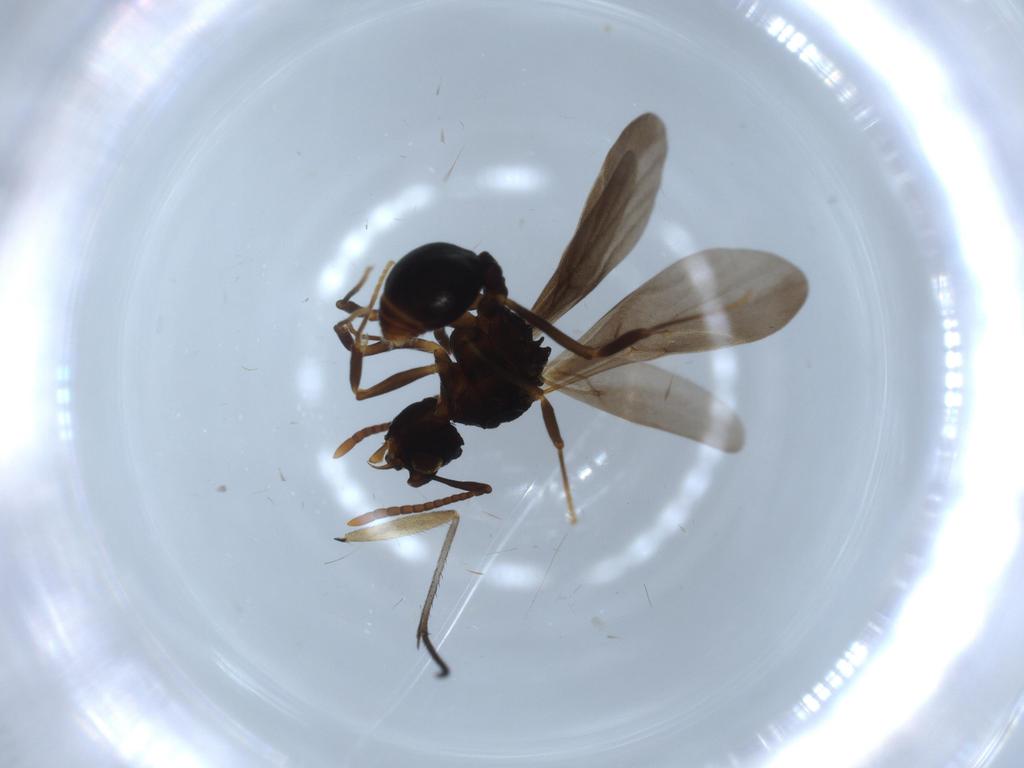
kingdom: Animalia
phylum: Arthropoda
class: Insecta
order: Hymenoptera
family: Formicidae
